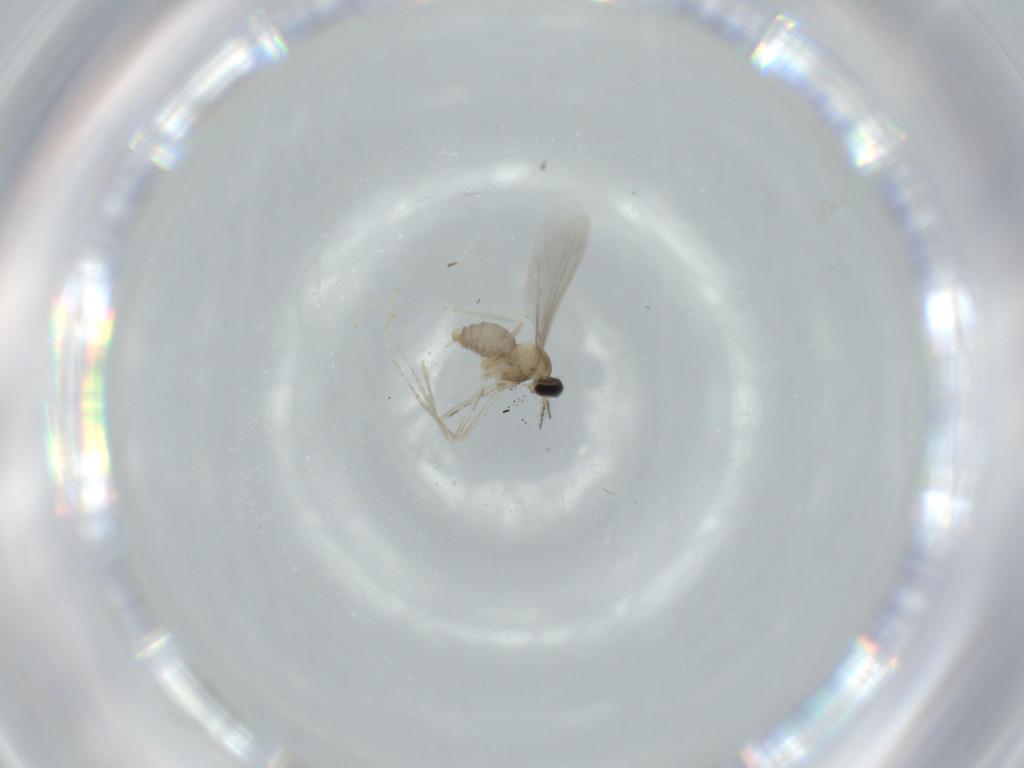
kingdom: Animalia
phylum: Arthropoda
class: Insecta
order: Diptera
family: Cecidomyiidae
